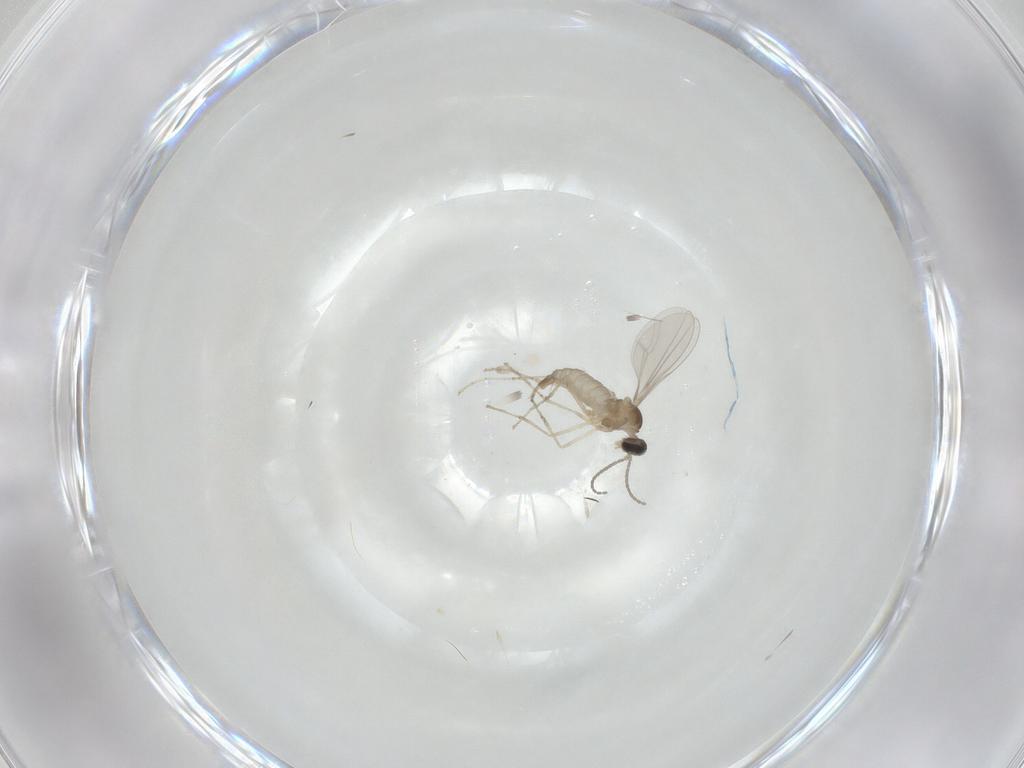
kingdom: Animalia
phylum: Arthropoda
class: Insecta
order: Diptera
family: Cecidomyiidae
